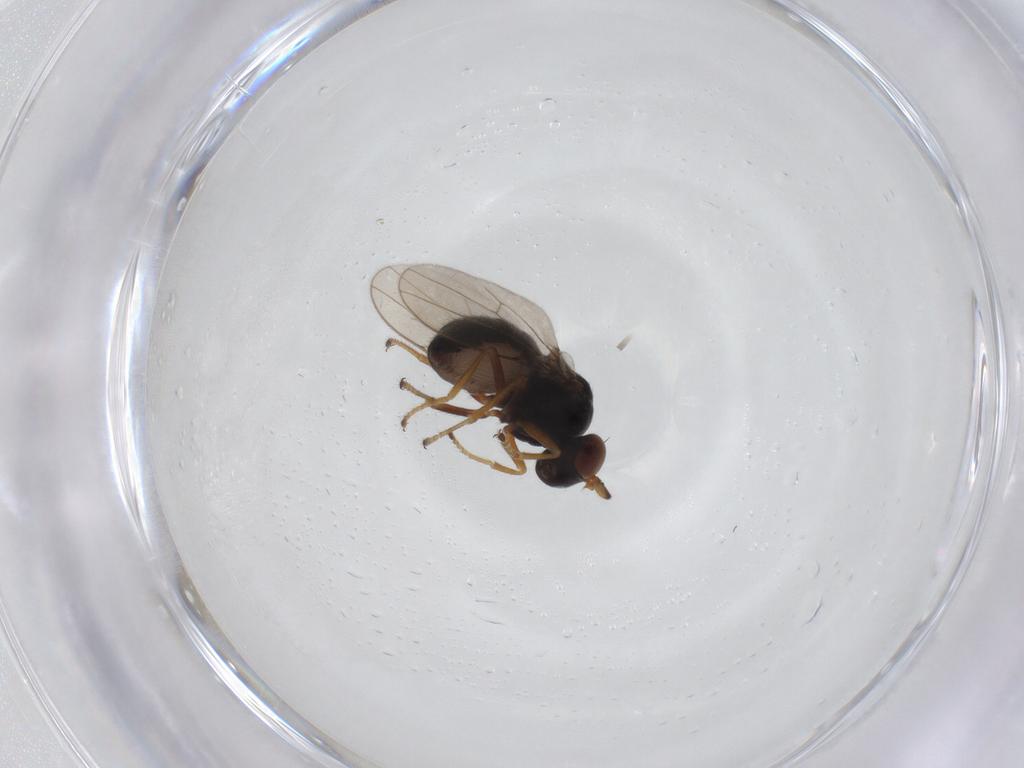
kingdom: Animalia
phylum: Arthropoda
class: Insecta
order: Diptera
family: Ephydridae
